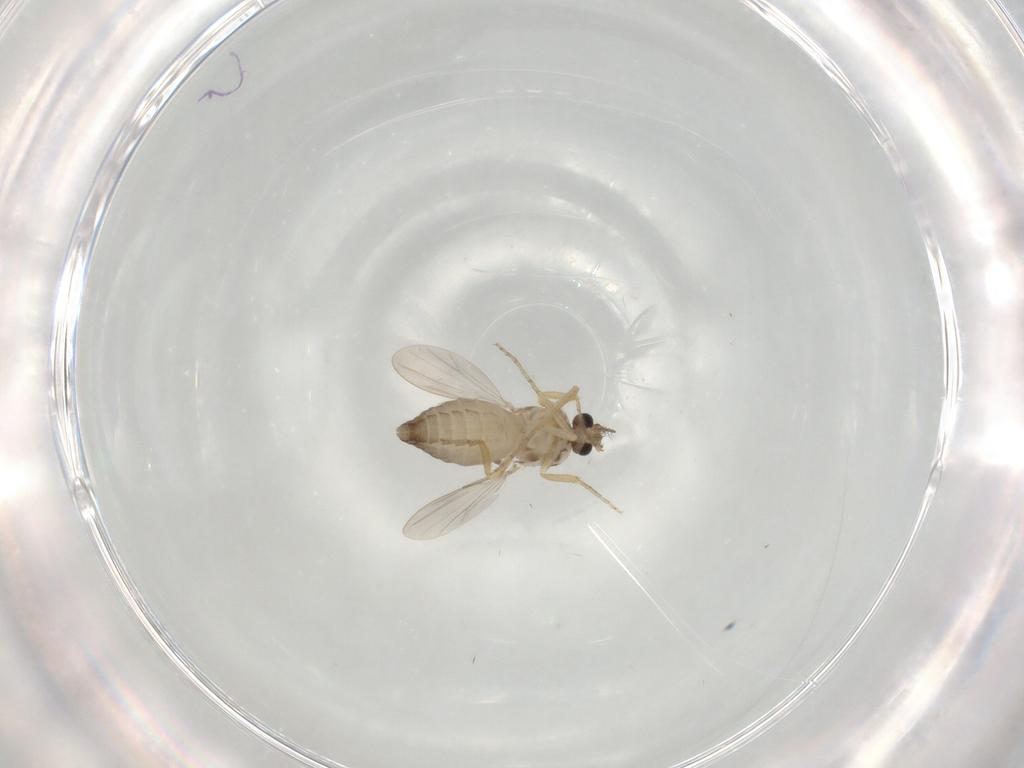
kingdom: Animalia
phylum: Arthropoda
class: Insecta
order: Diptera
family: Ceratopogonidae
